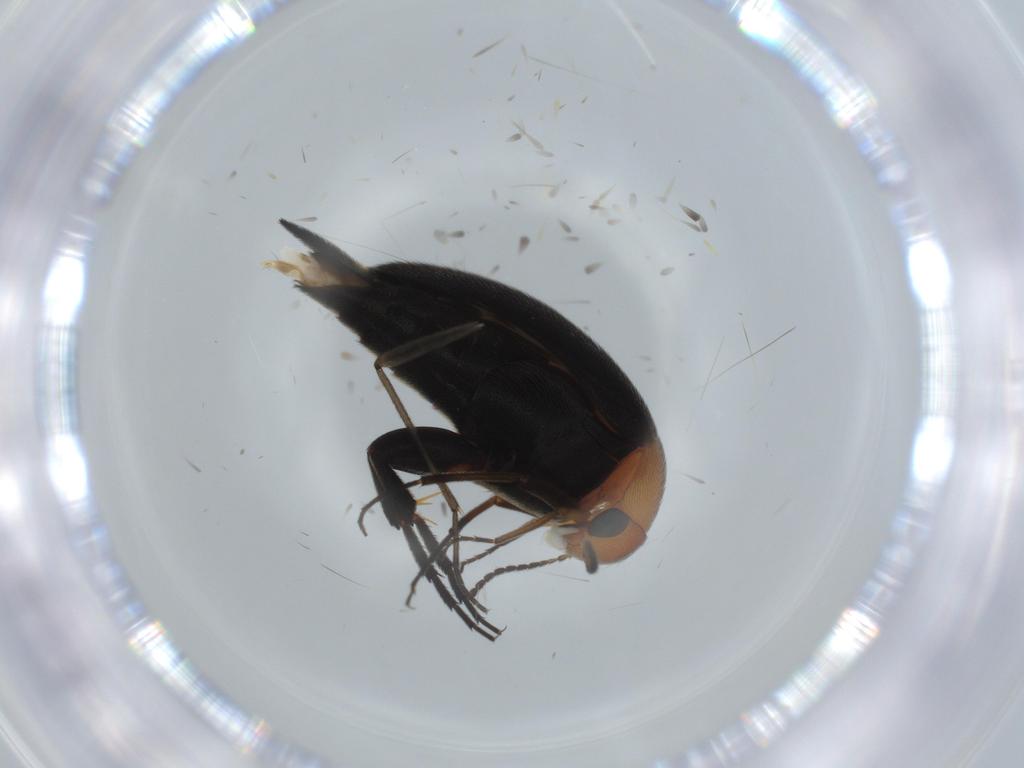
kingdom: Animalia
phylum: Arthropoda
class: Insecta
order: Coleoptera
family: Mordellidae
